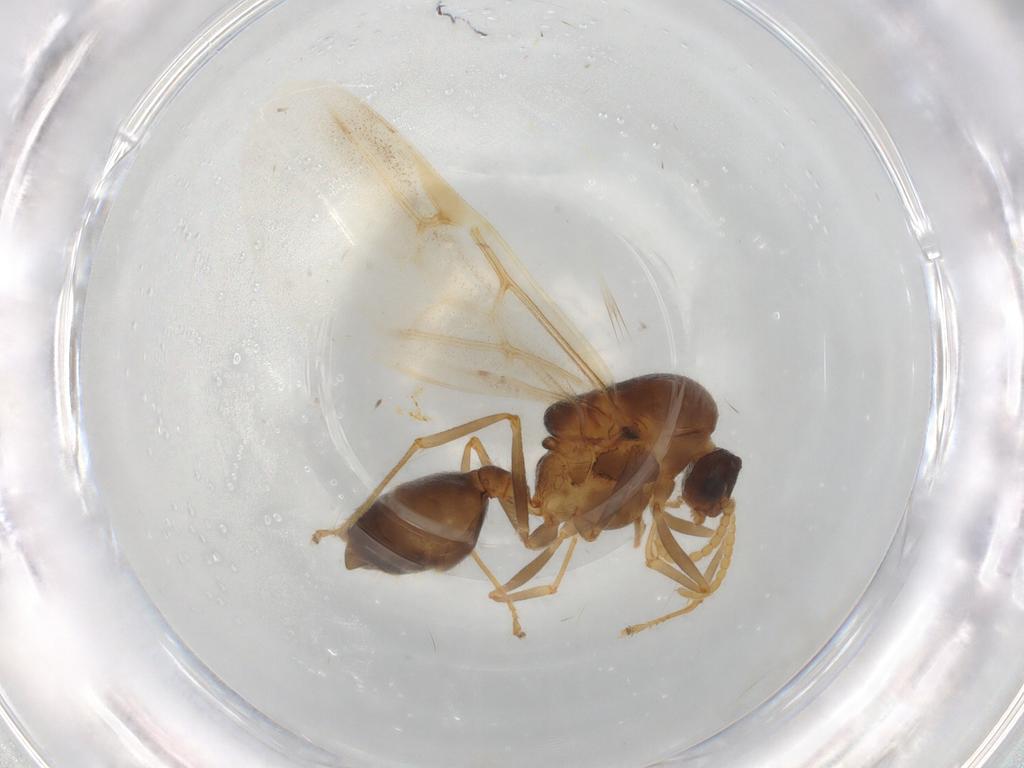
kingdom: Animalia
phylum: Arthropoda
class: Insecta
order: Hymenoptera
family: Formicidae
